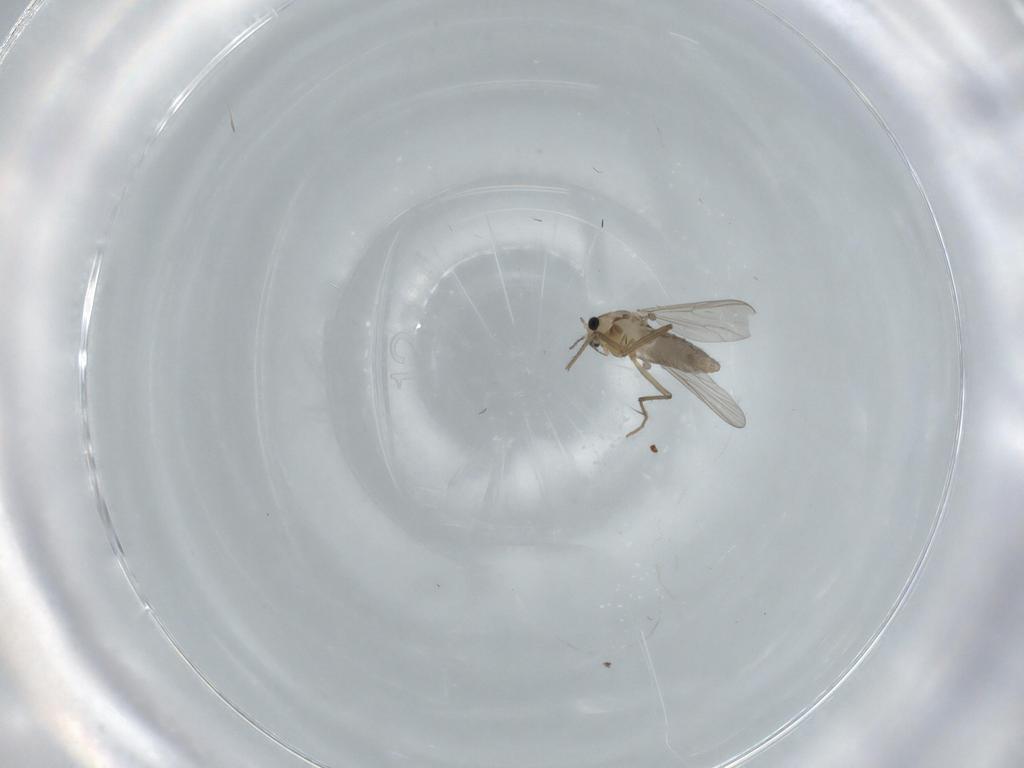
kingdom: Animalia
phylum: Arthropoda
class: Insecta
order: Diptera
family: Chironomidae
